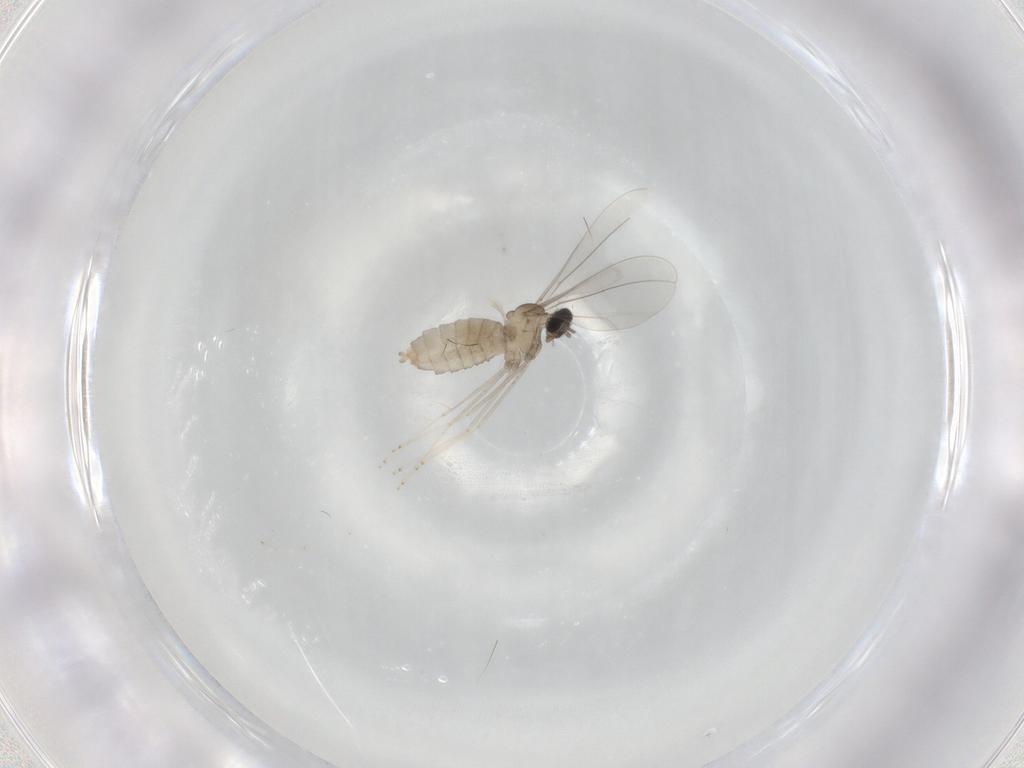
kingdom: Animalia
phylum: Arthropoda
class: Insecta
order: Diptera
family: Cecidomyiidae
